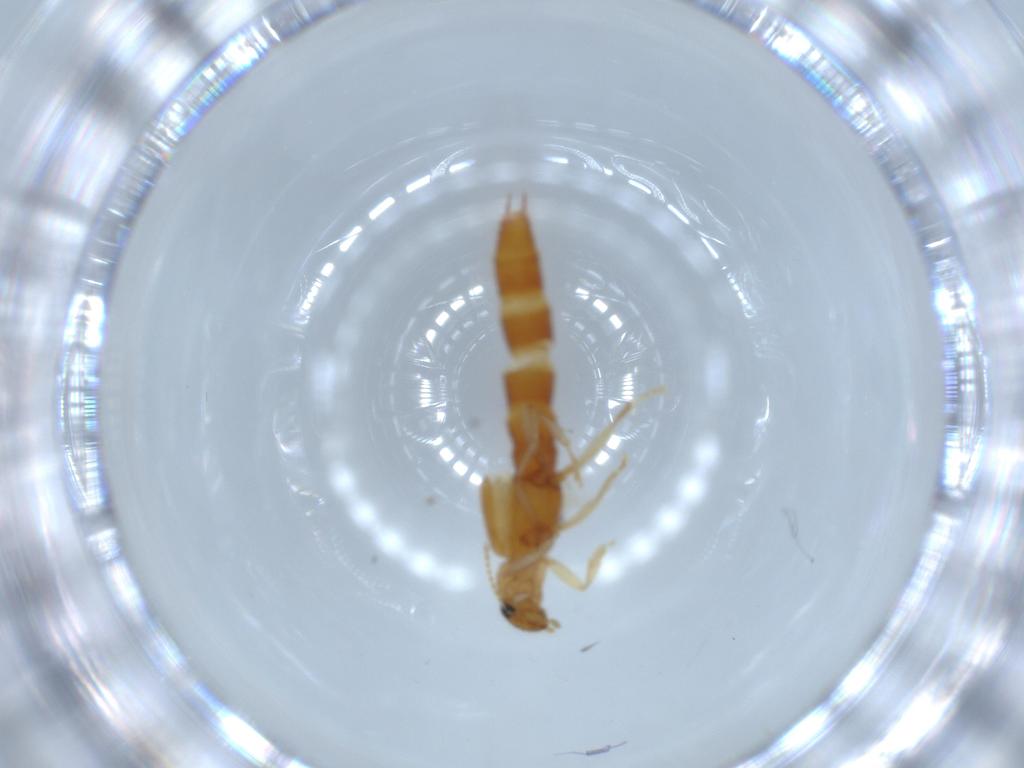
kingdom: Animalia
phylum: Arthropoda
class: Insecta
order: Coleoptera
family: Staphylinidae
